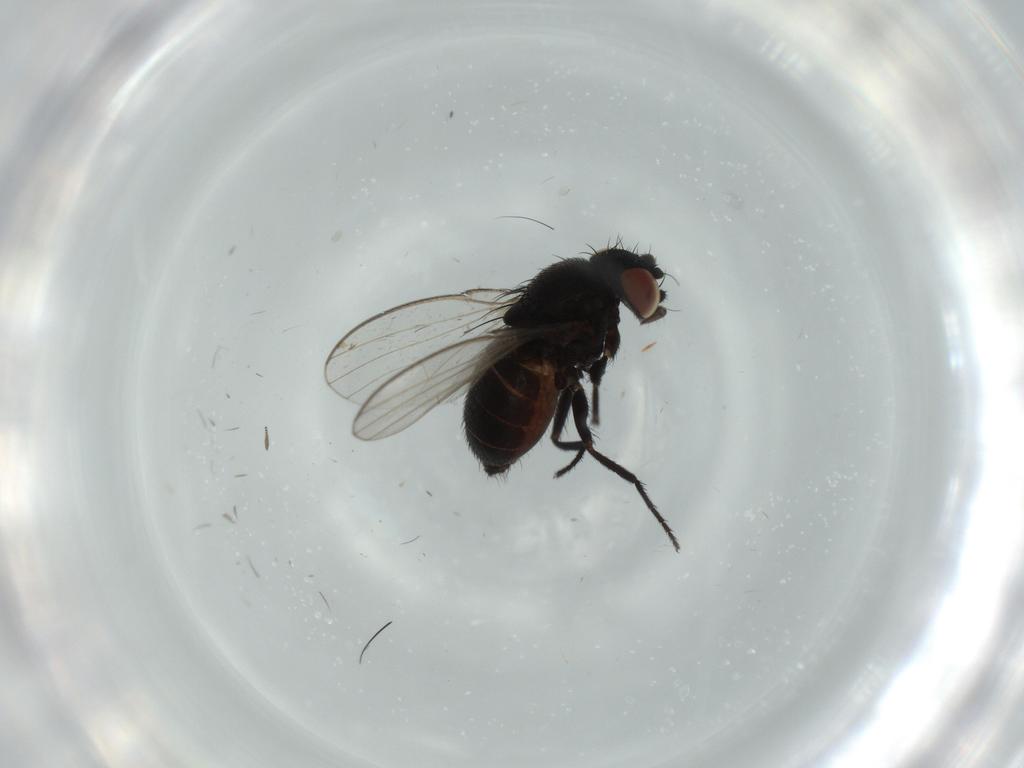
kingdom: Animalia
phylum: Arthropoda
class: Insecta
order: Diptera
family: Milichiidae
